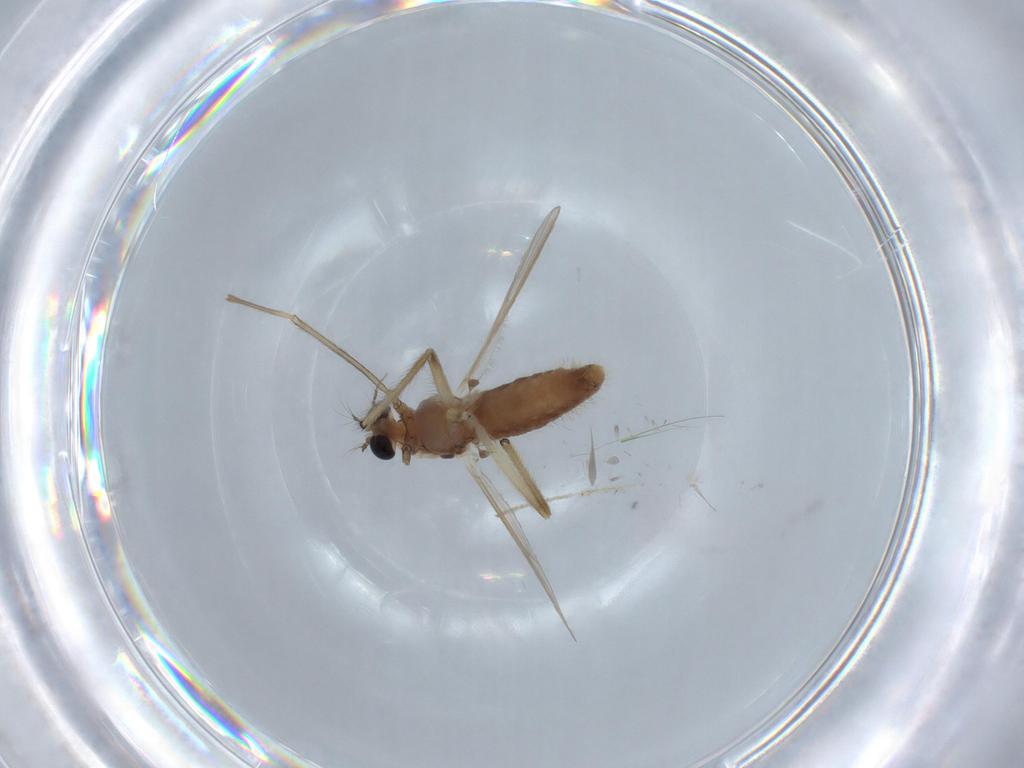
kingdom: Animalia
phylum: Arthropoda
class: Insecta
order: Diptera
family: Chironomidae
